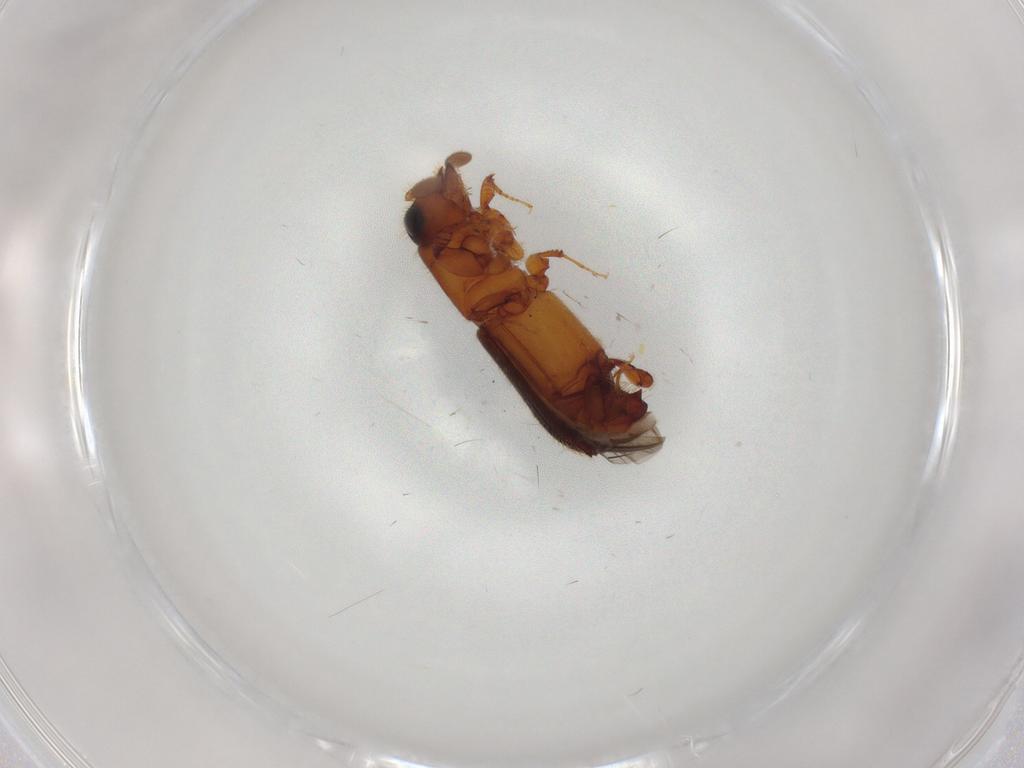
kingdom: Animalia
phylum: Arthropoda
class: Insecta
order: Coleoptera
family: Curculionidae
